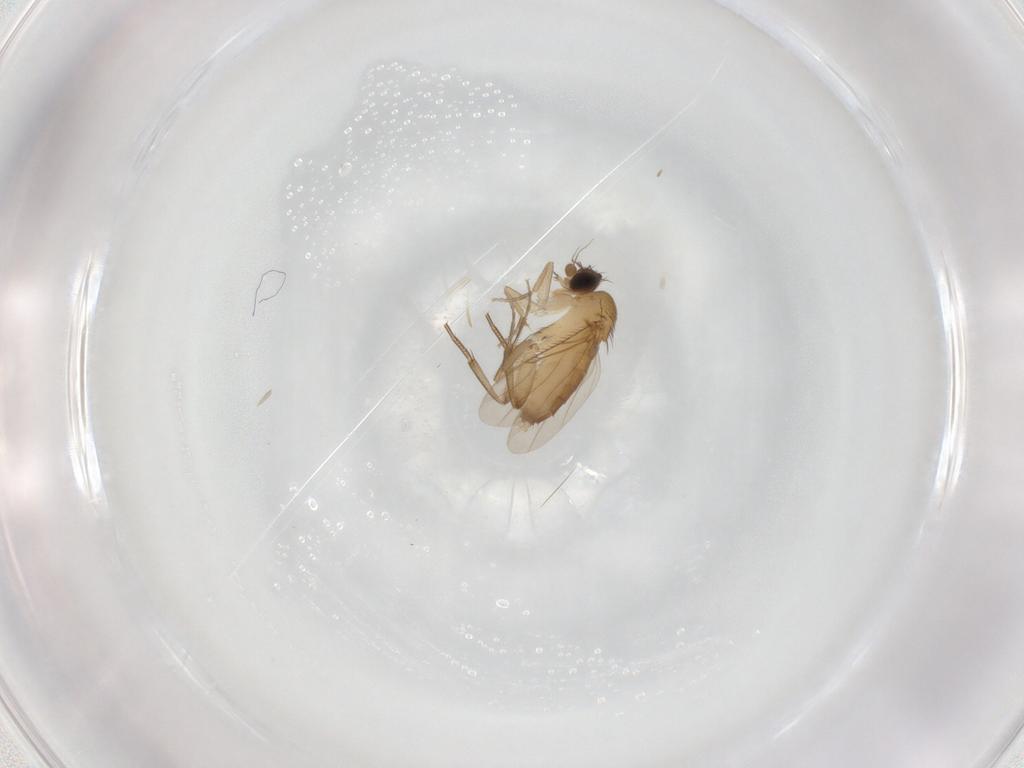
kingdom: Animalia
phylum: Arthropoda
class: Insecta
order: Diptera
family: Phoridae
